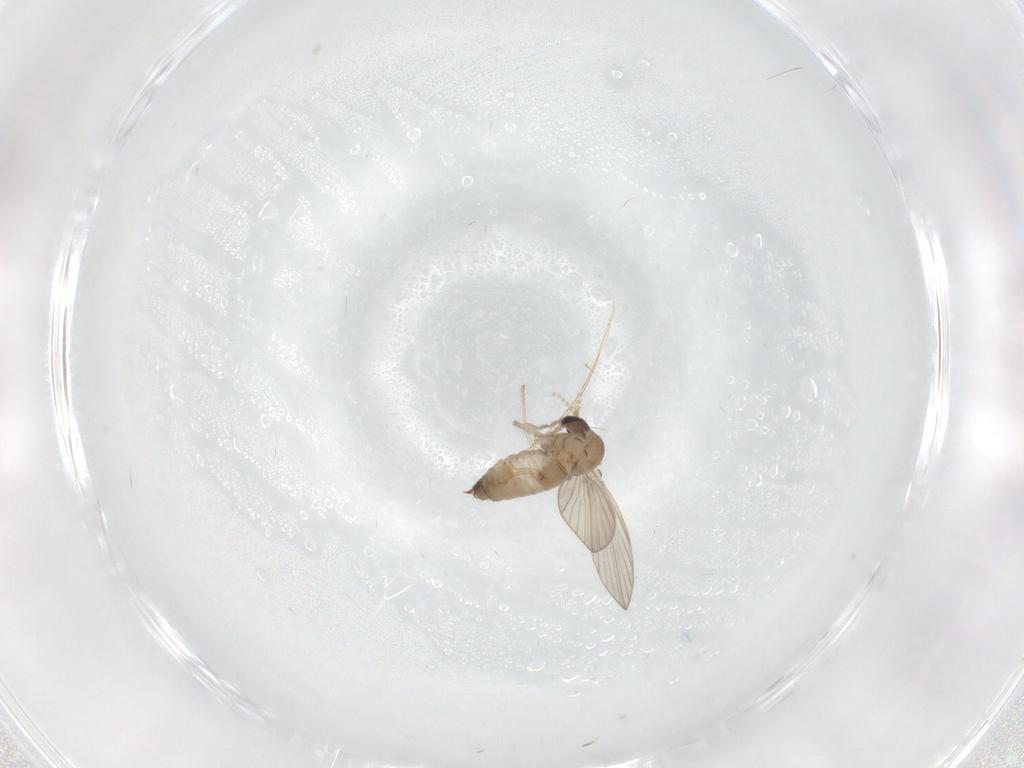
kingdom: Animalia
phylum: Arthropoda
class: Insecta
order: Diptera
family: Psychodidae
